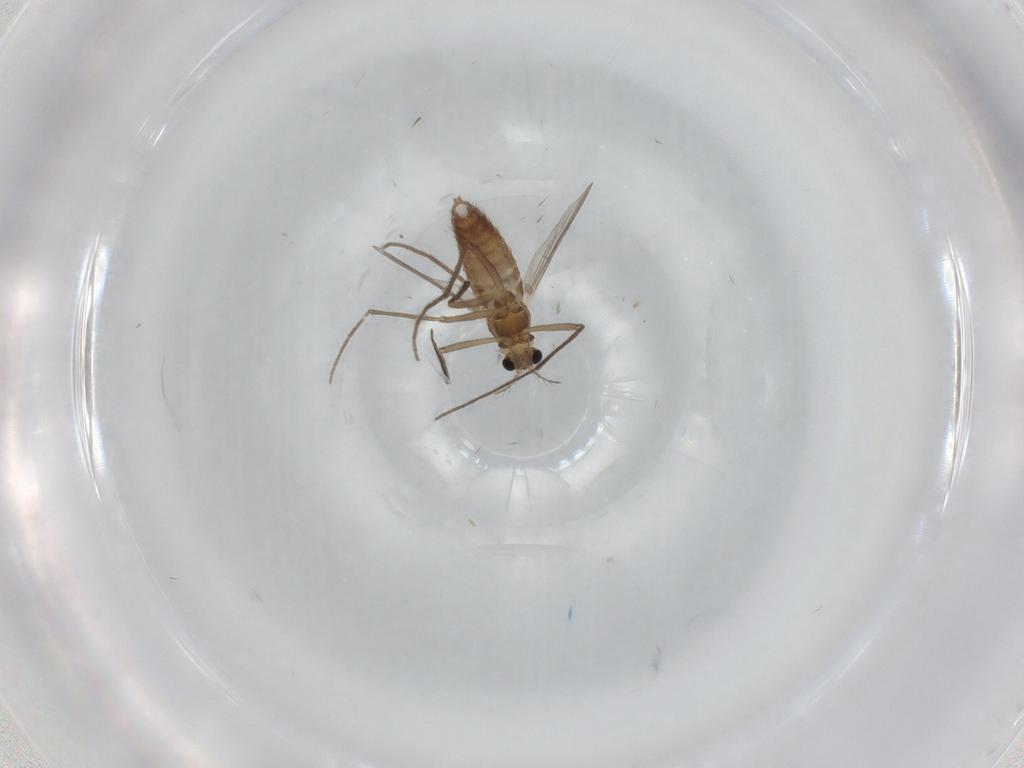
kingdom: Animalia
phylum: Arthropoda
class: Insecta
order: Diptera
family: Chironomidae
